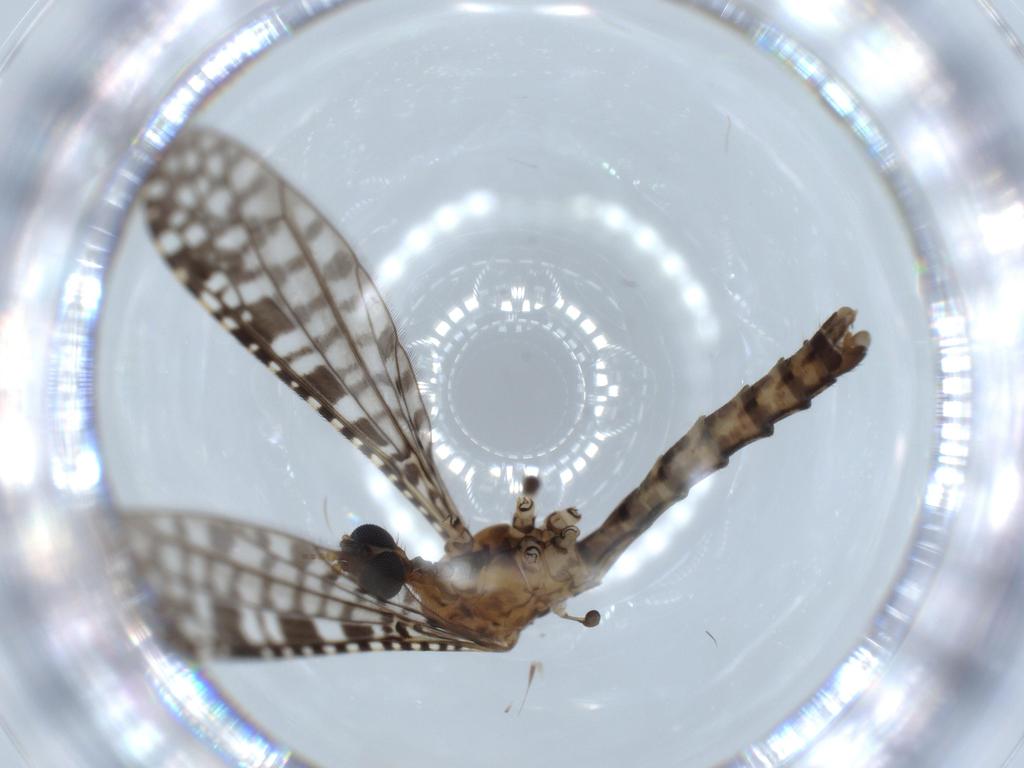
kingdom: Animalia
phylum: Arthropoda
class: Insecta
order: Diptera
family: Limoniidae
